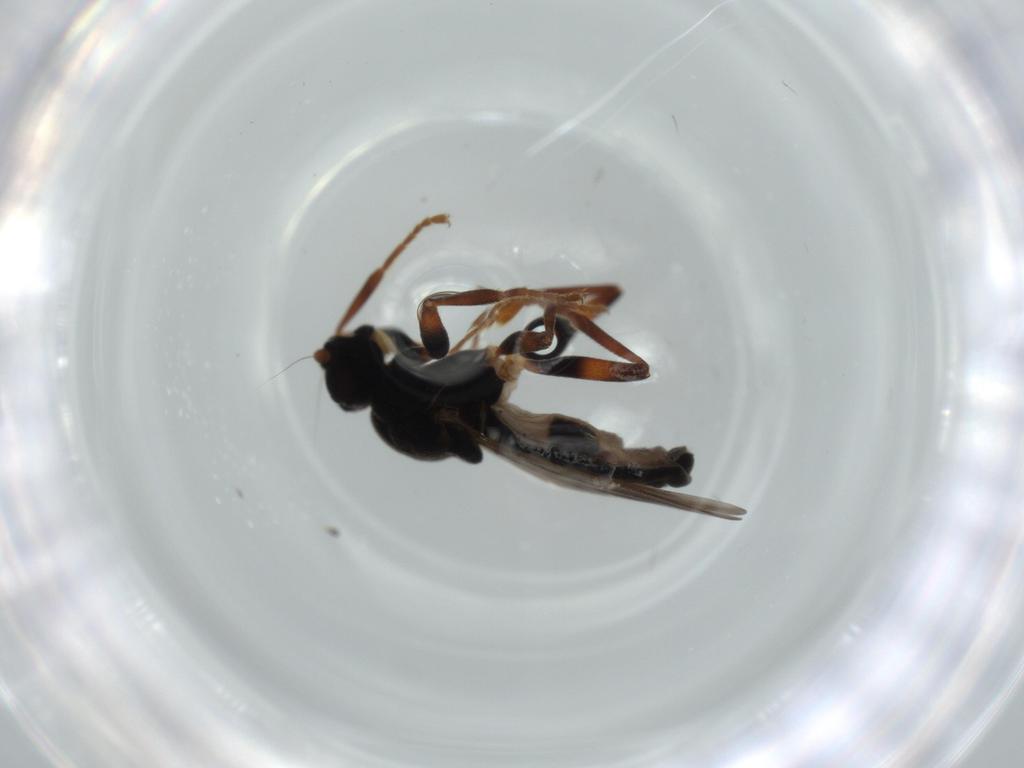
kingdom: Animalia
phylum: Arthropoda
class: Insecta
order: Diptera
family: Sphaeroceridae
